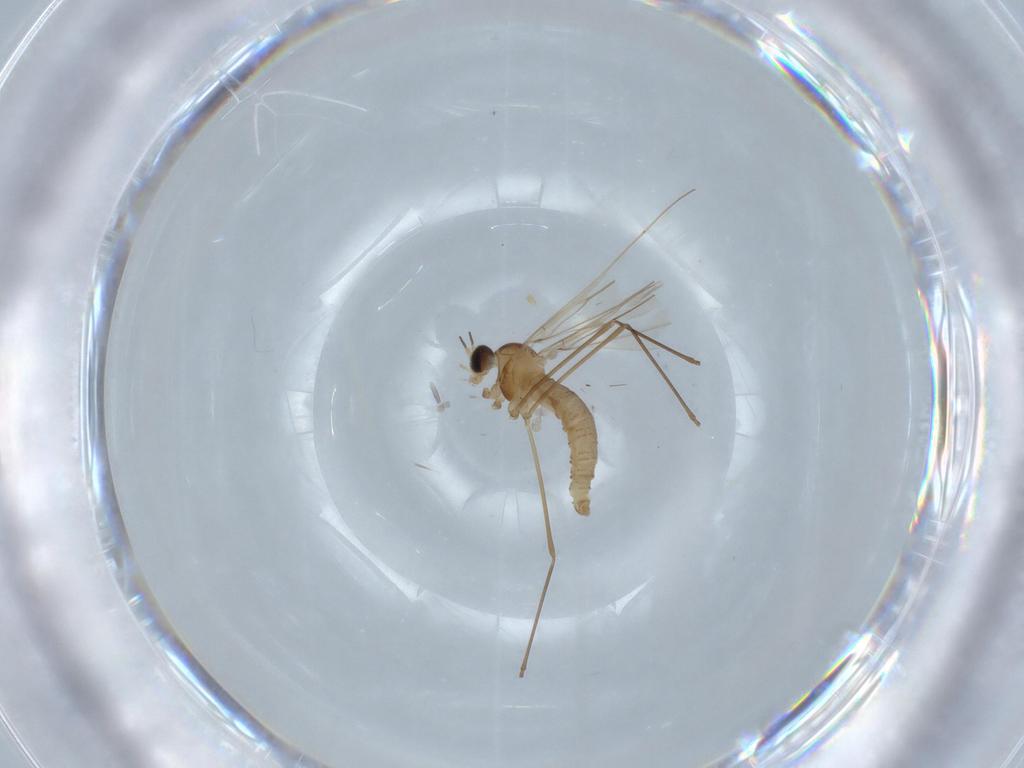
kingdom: Animalia
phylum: Arthropoda
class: Insecta
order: Diptera
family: Cecidomyiidae
